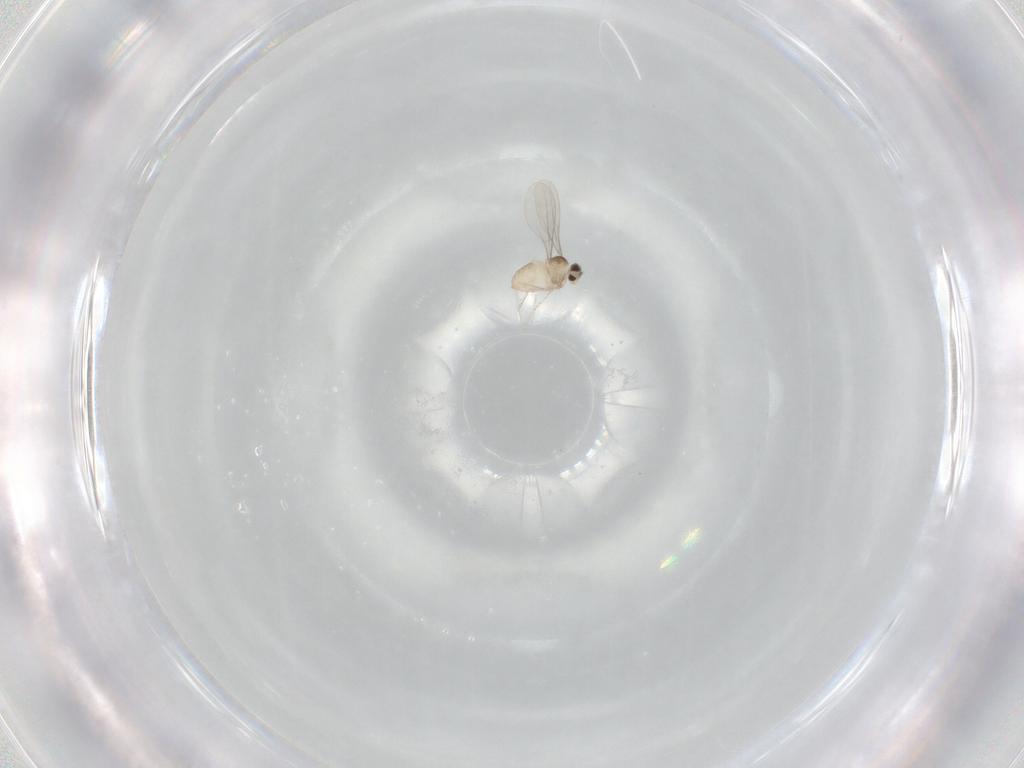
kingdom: Animalia
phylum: Arthropoda
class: Insecta
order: Diptera
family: Cecidomyiidae
